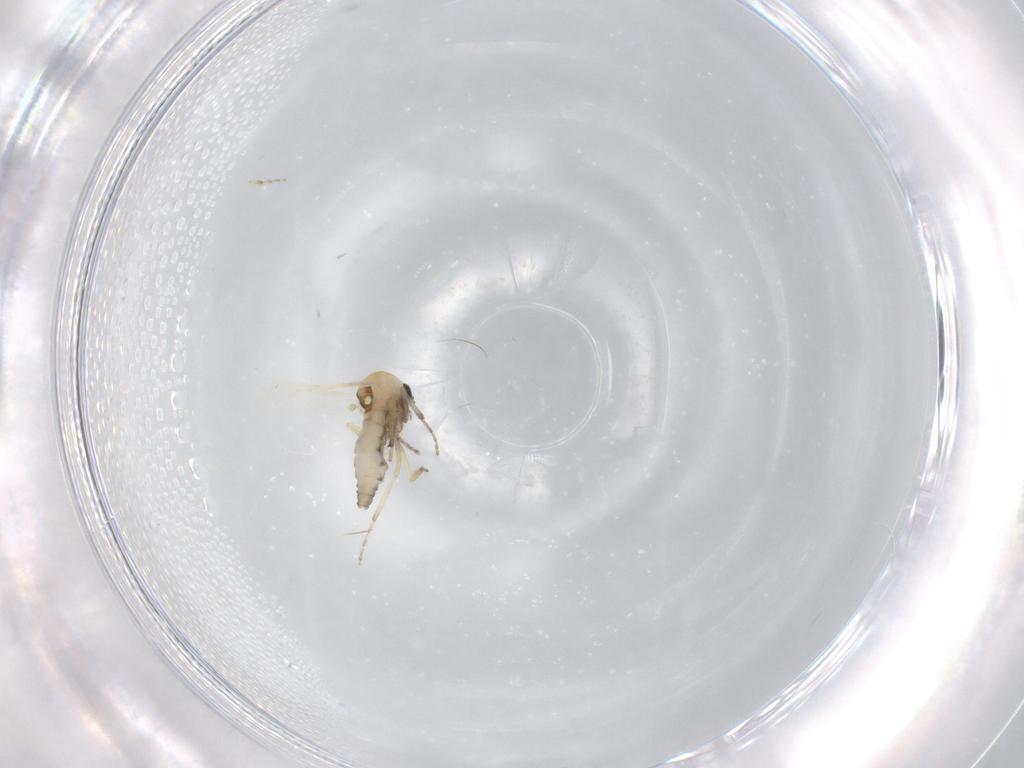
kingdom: Animalia
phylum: Arthropoda
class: Insecta
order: Diptera
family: Ceratopogonidae
